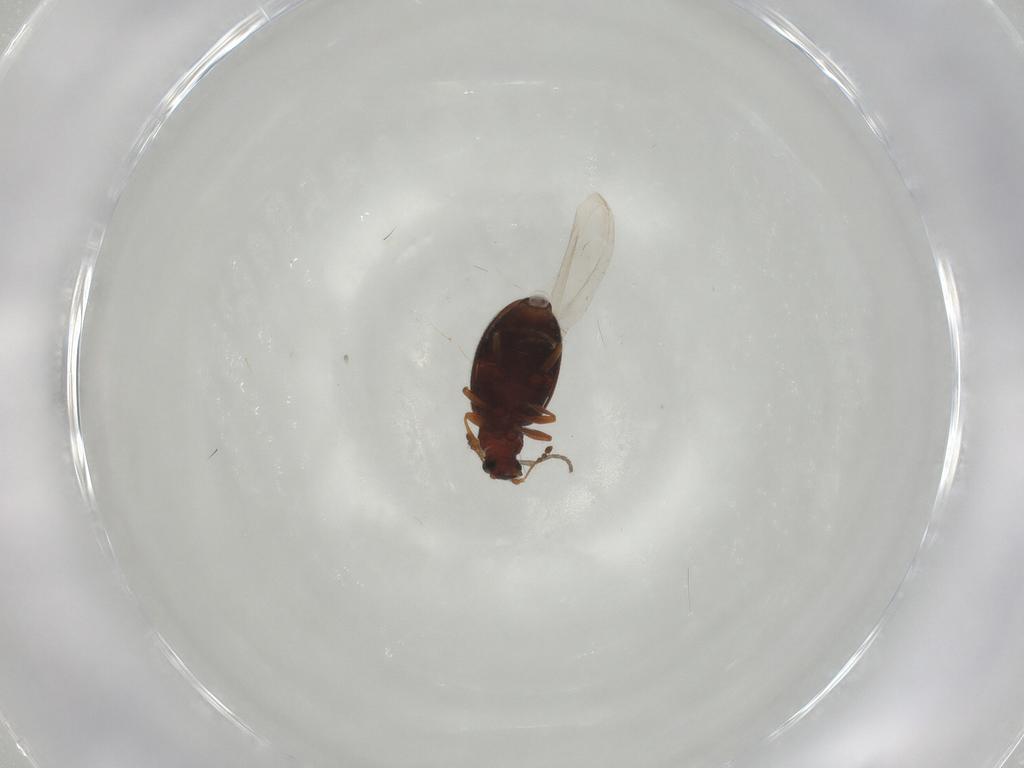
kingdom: Animalia
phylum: Arthropoda
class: Insecta
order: Coleoptera
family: Latridiidae
